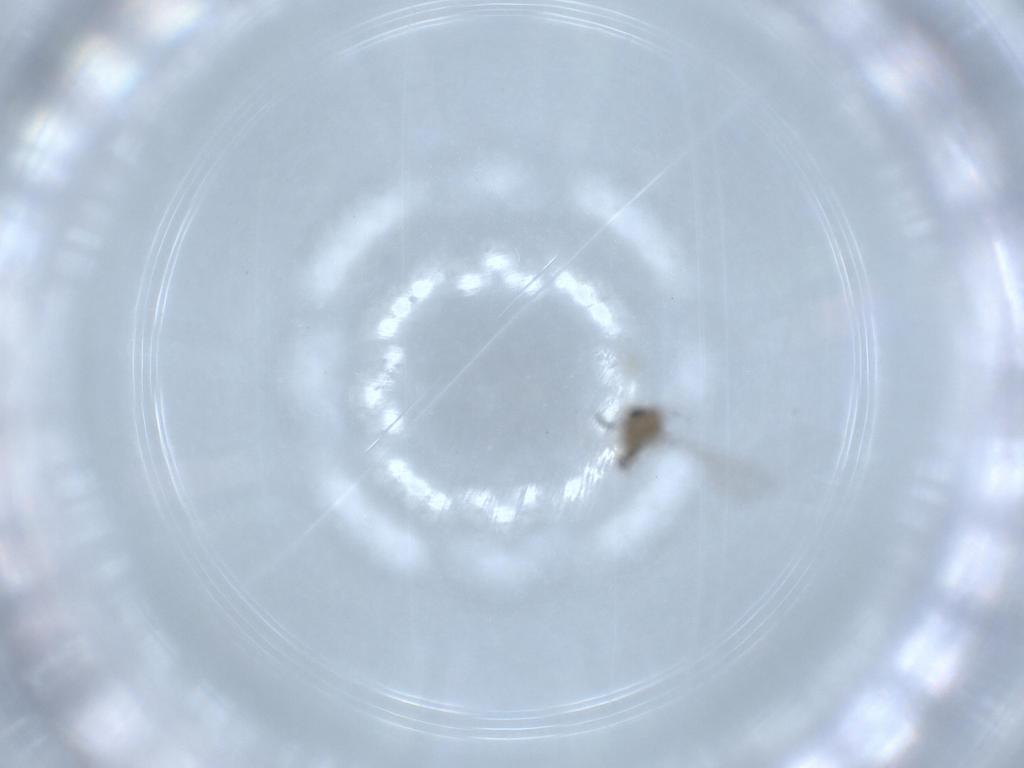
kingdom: Animalia
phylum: Arthropoda
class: Insecta
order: Diptera
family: Cecidomyiidae
